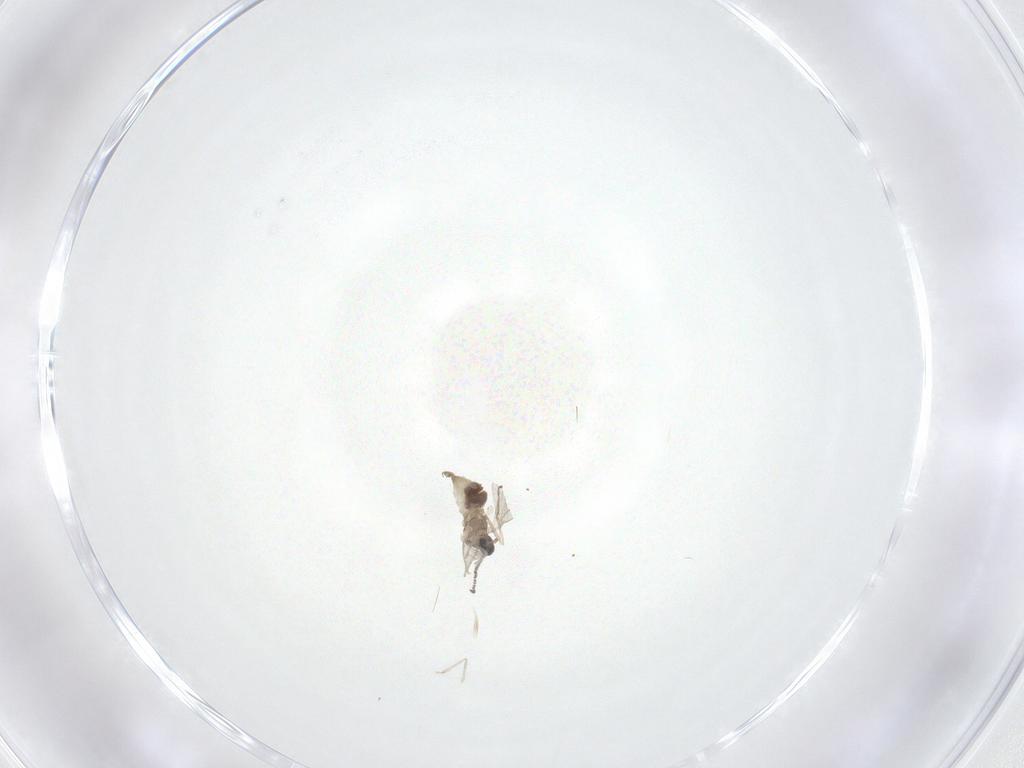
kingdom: Animalia
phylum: Arthropoda
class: Insecta
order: Diptera
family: Cecidomyiidae
